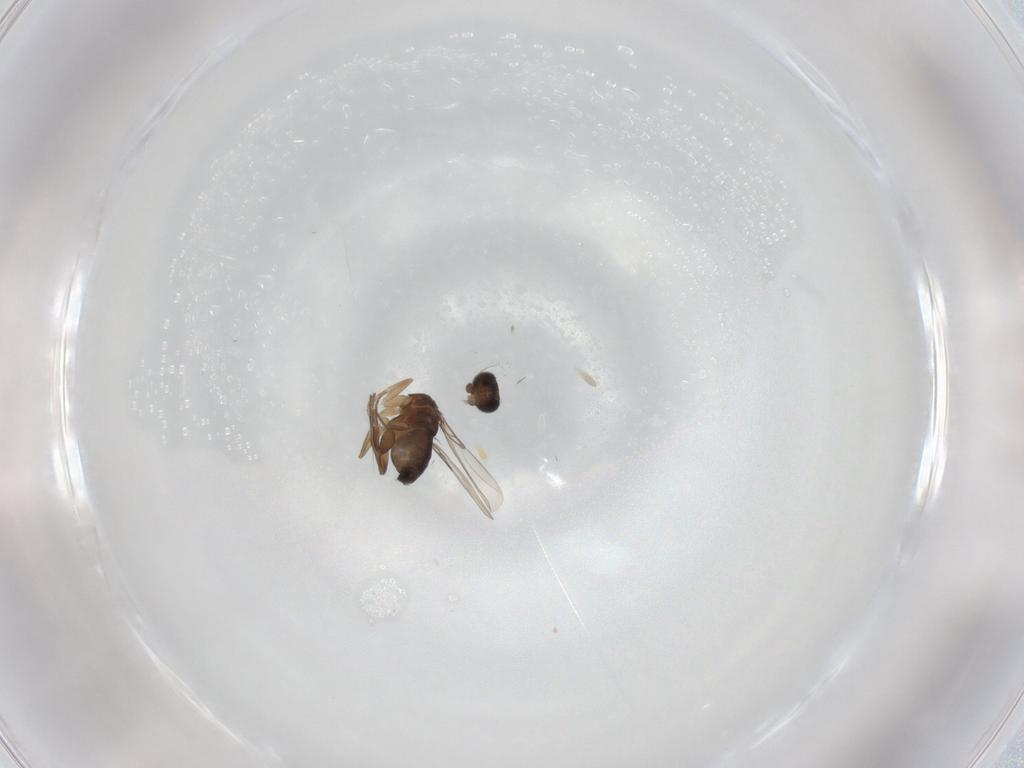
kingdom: Animalia
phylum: Arthropoda
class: Insecta
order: Diptera
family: Phoridae
